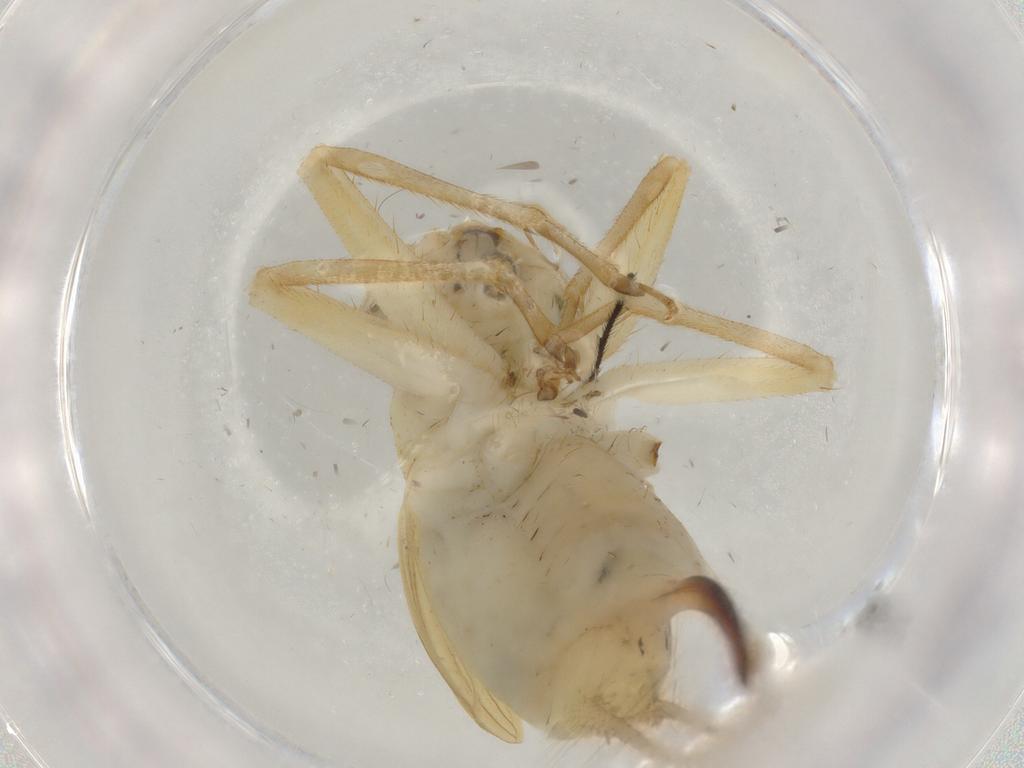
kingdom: Animalia
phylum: Arthropoda
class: Insecta
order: Orthoptera
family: Trigonidiidae
